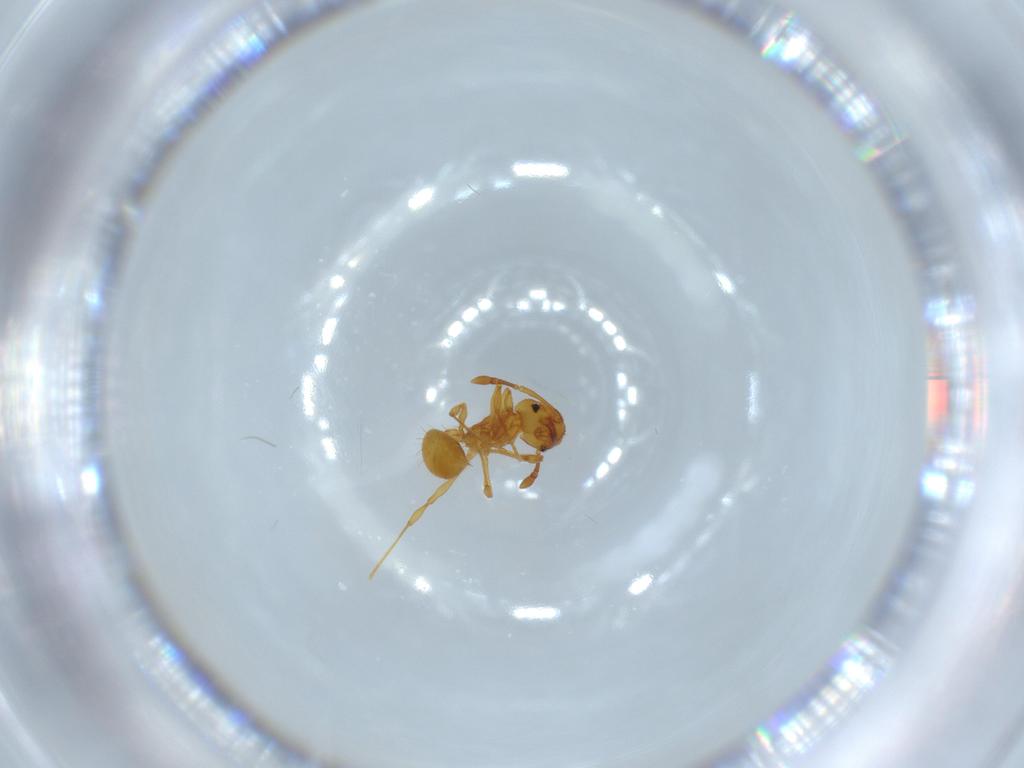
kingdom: Animalia
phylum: Arthropoda
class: Insecta
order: Hymenoptera
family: Formicidae
